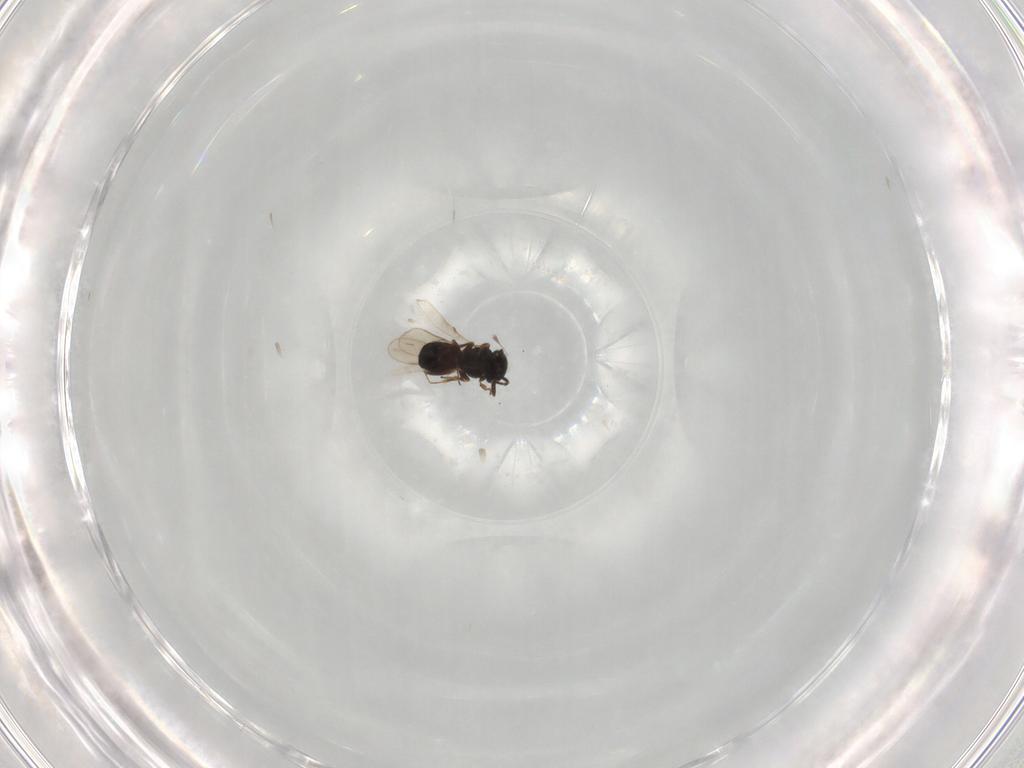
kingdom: Animalia
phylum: Arthropoda
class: Insecta
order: Hymenoptera
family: Scelionidae
